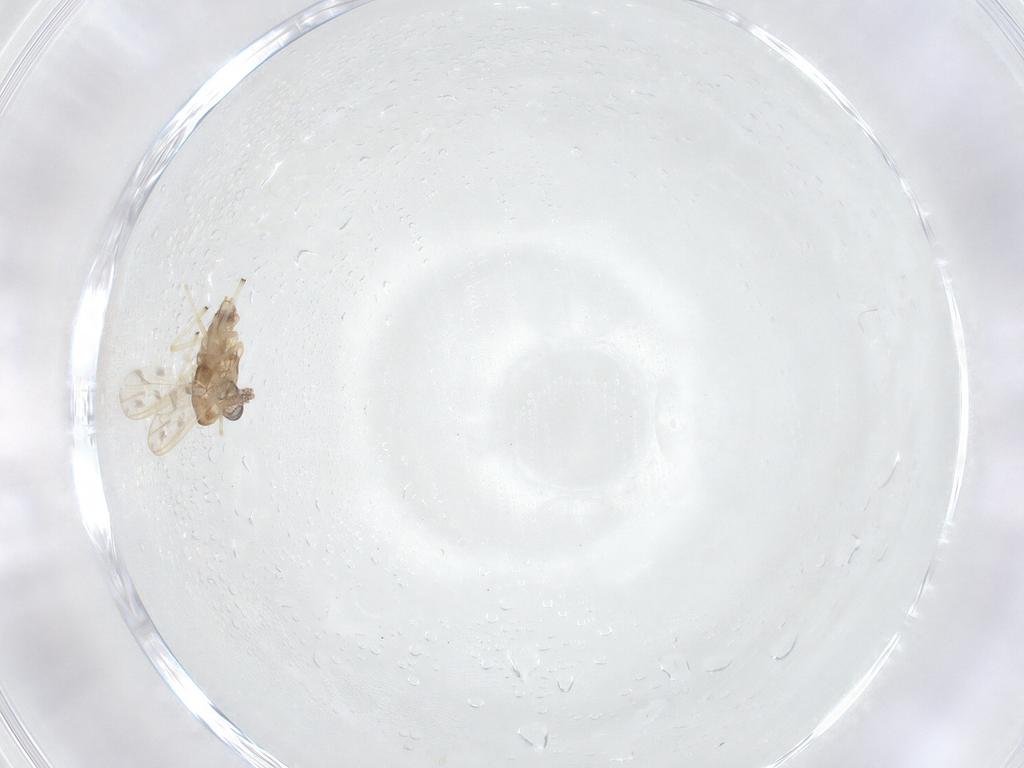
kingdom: Animalia
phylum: Arthropoda
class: Insecta
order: Diptera
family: Chironomidae
